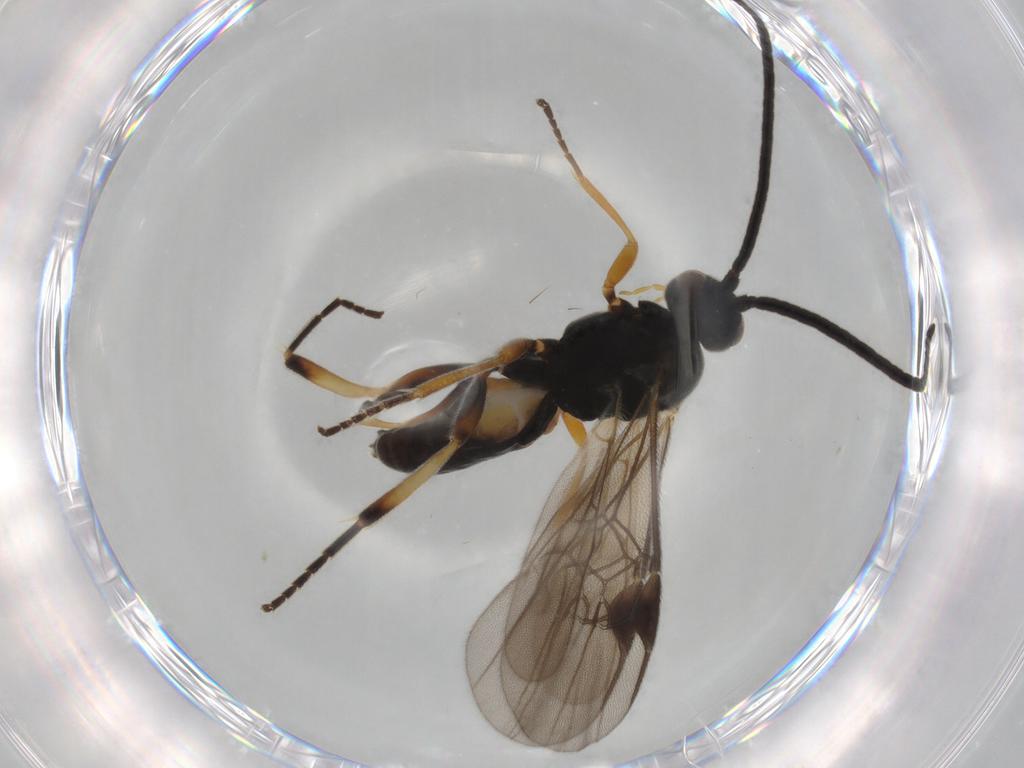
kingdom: Animalia
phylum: Arthropoda
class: Insecta
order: Hymenoptera
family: Braconidae
